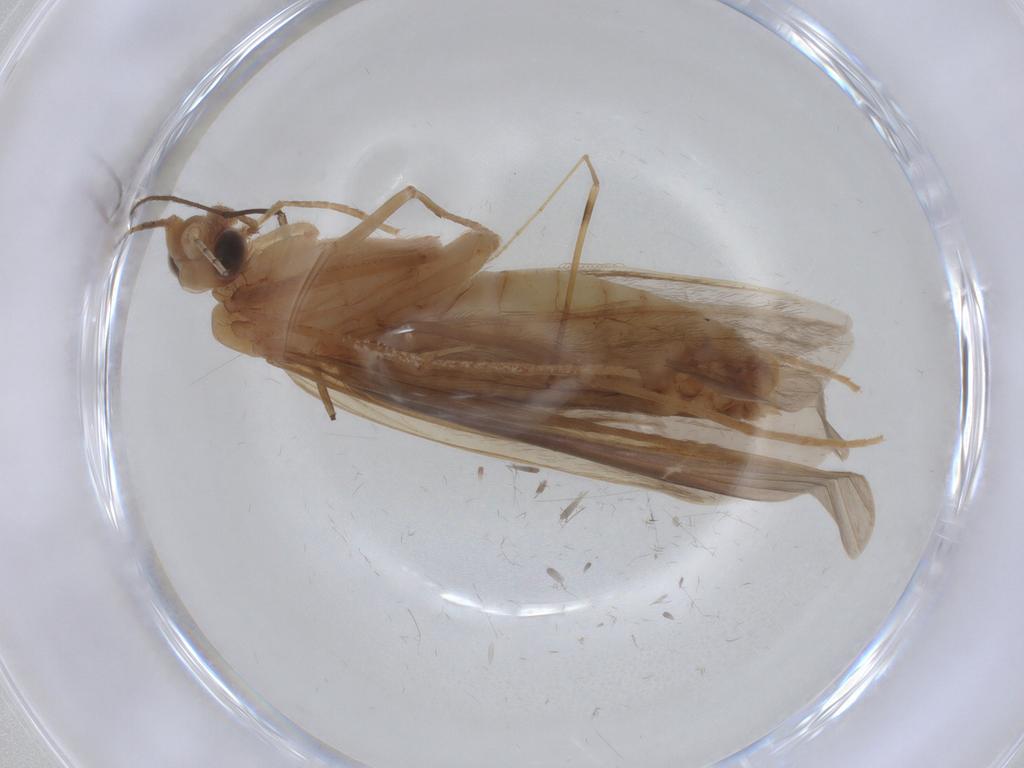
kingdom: Animalia
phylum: Arthropoda
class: Insecta
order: Trichoptera
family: Leptoceridae
